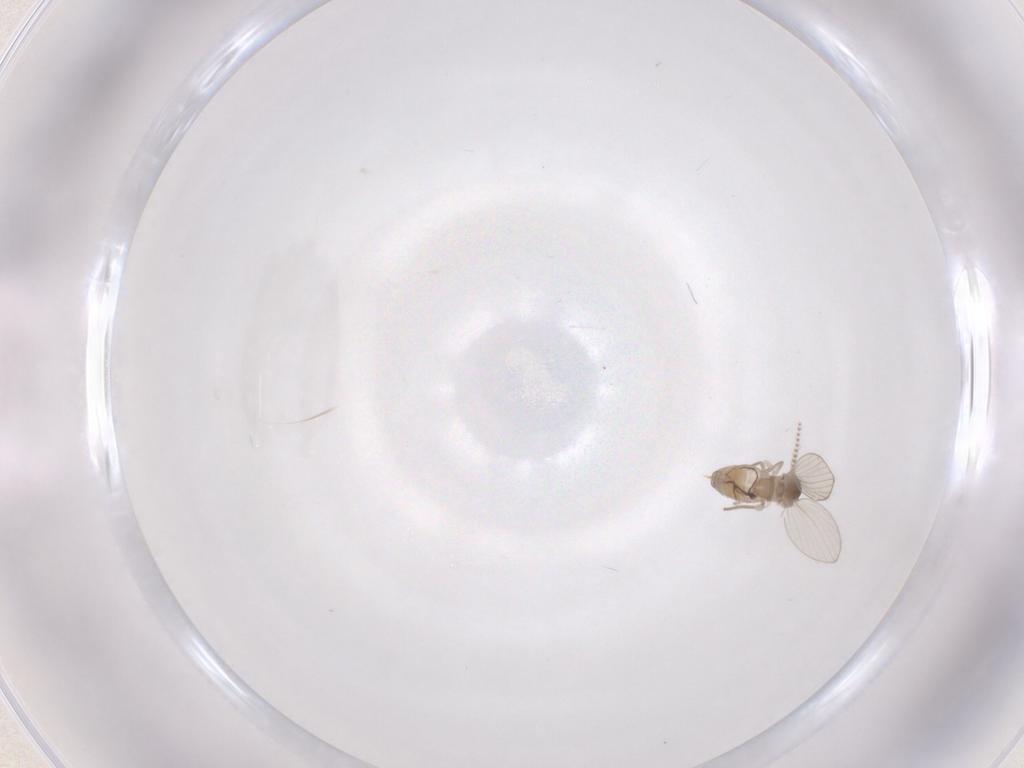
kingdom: Animalia
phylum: Arthropoda
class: Insecta
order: Diptera
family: Psychodidae
